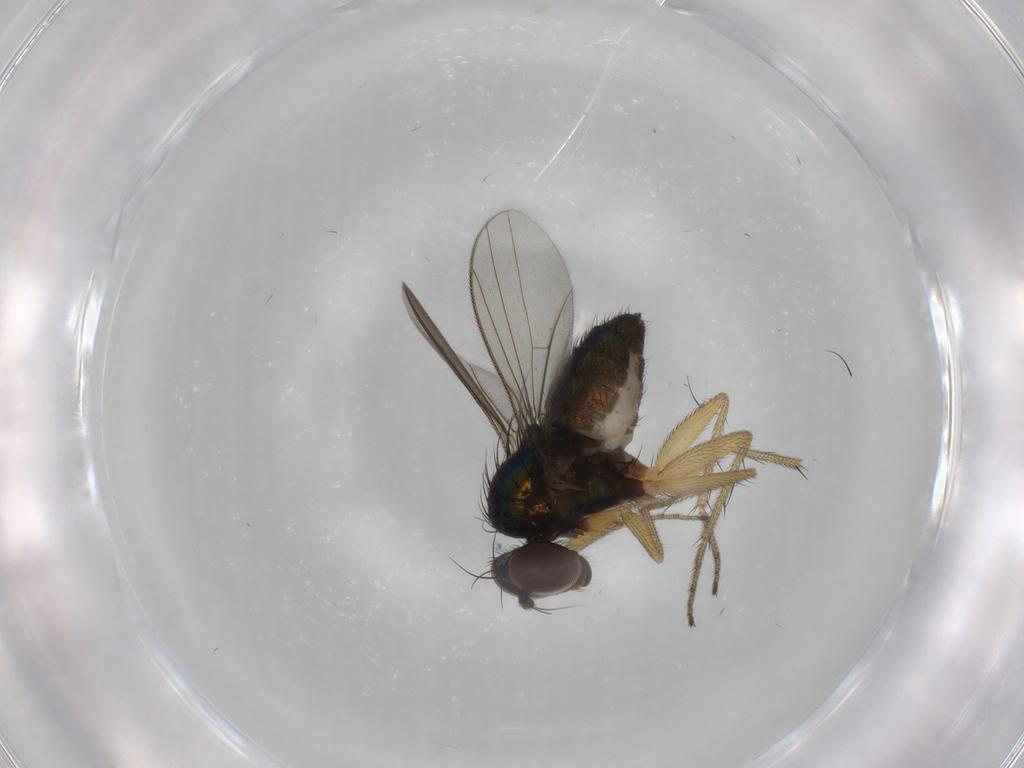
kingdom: Animalia
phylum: Arthropoda
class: Insecta
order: Diptera
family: Dolichopodidae
